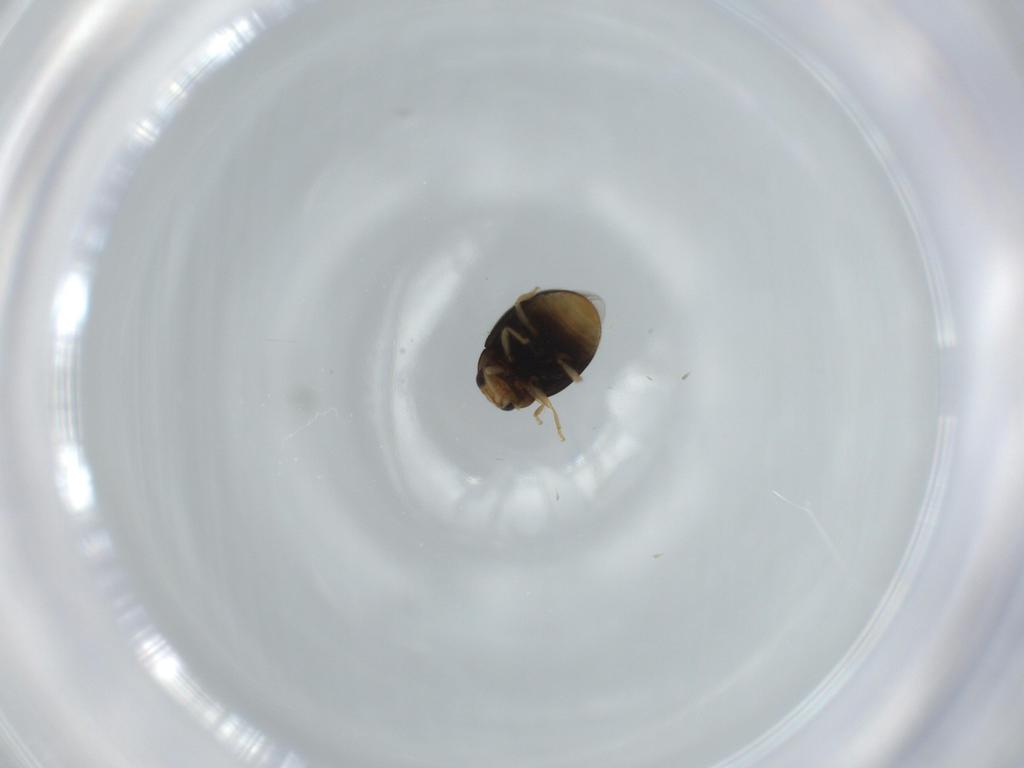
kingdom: Animalia
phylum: Arthropoda
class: Insecta
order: Coleoptera
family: Coccinellidae
